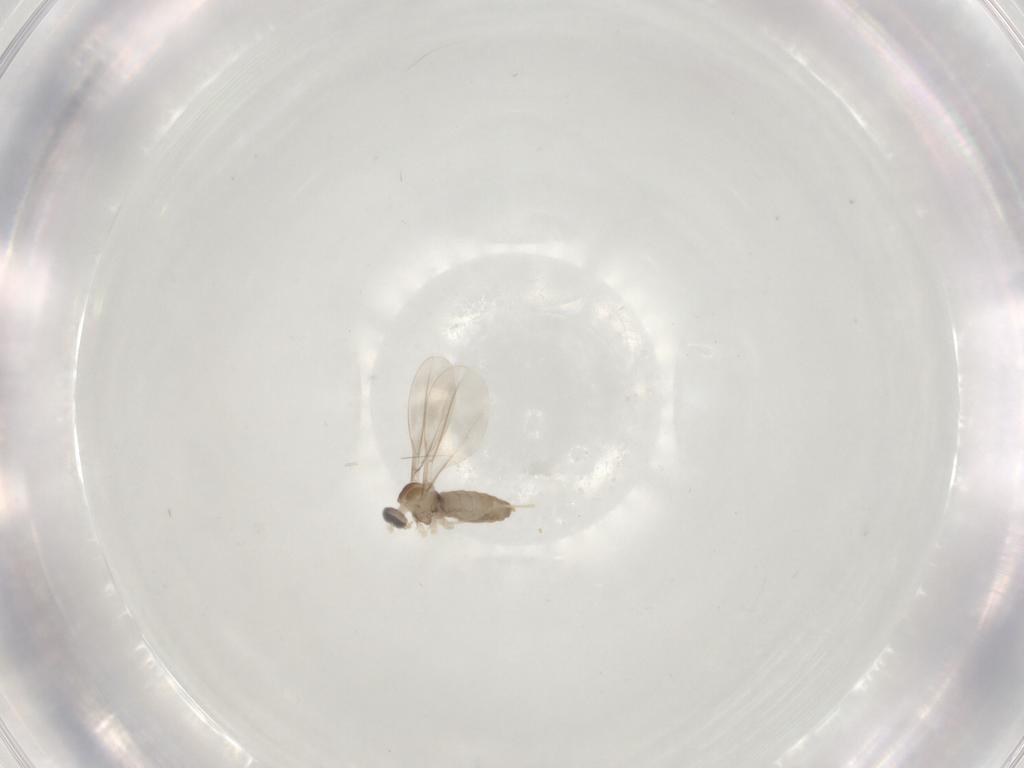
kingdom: Animalia
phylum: Arthropoda
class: Insecta
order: Diptera
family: Cecidomyiidae
